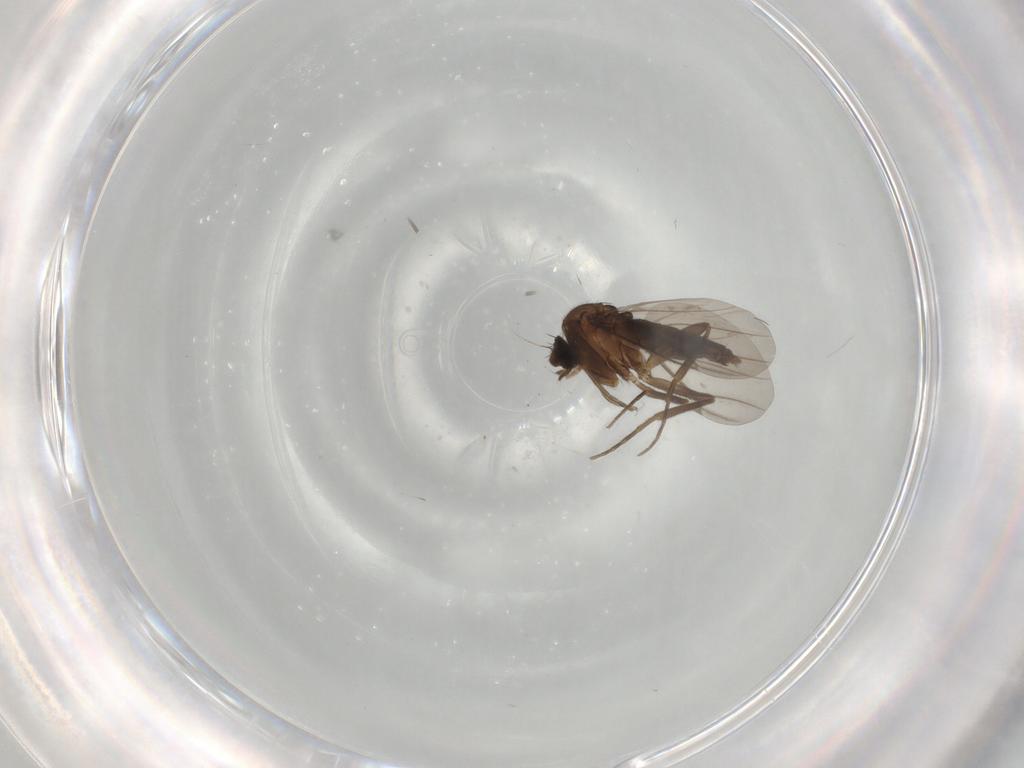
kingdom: Animalia
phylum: Arthropoda
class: Insecta
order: Diptera
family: Phoridae
